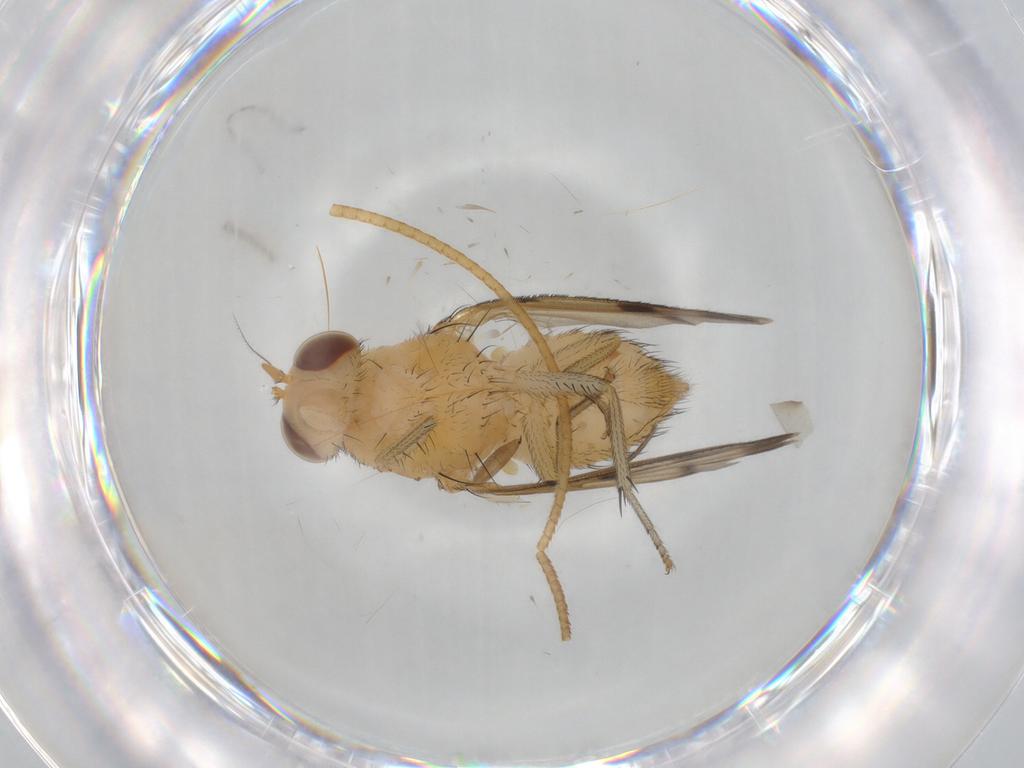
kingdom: Animalia
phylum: Arthropoda
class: Insecta
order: Diptera
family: Psychodidae
